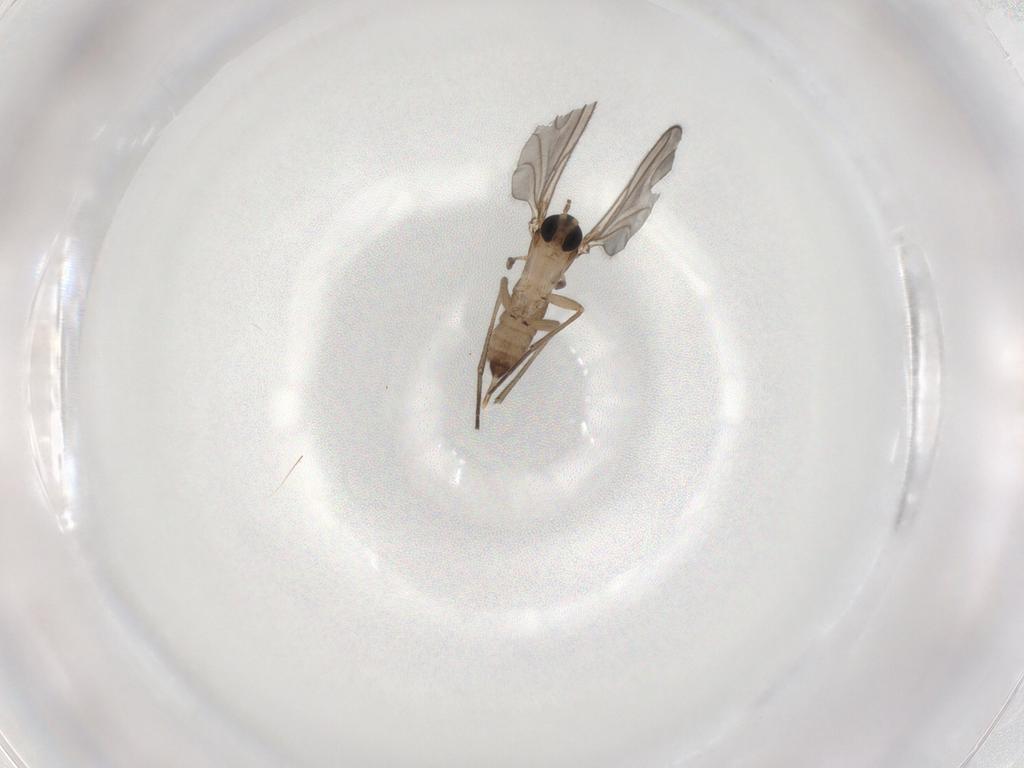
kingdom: Animalia
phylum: Arthropoda
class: Insecta
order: Diptera
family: Sciaridae
